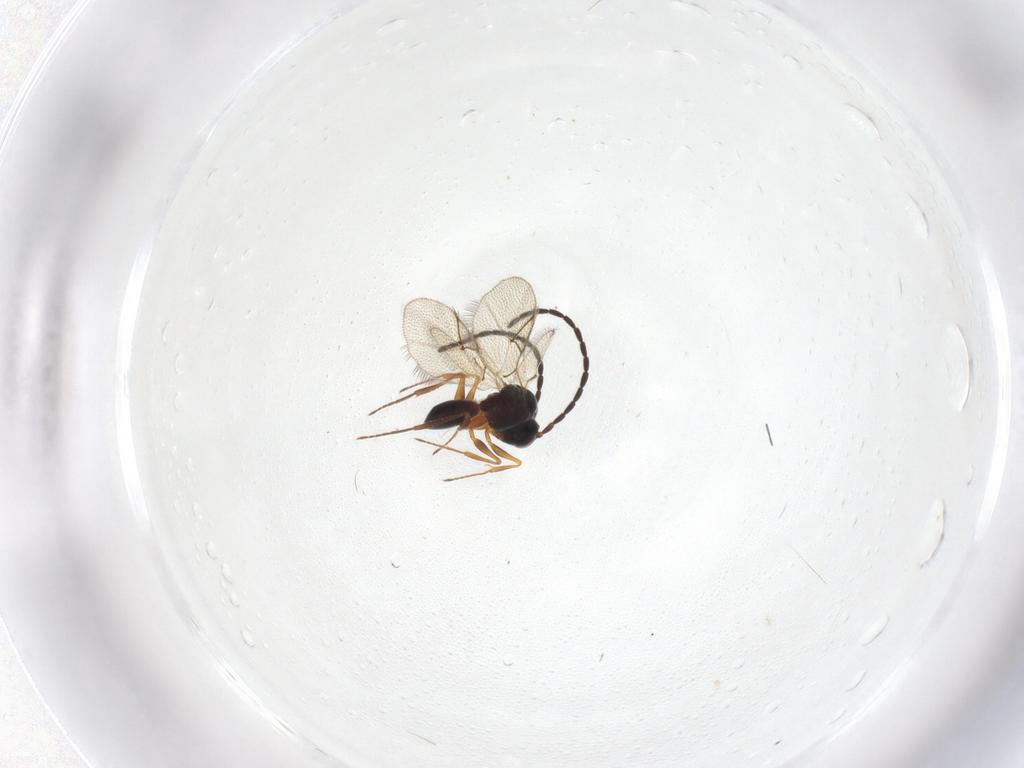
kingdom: Animalia
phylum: Arthropoda
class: Insecta
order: Hymenoptera
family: Figitidae
